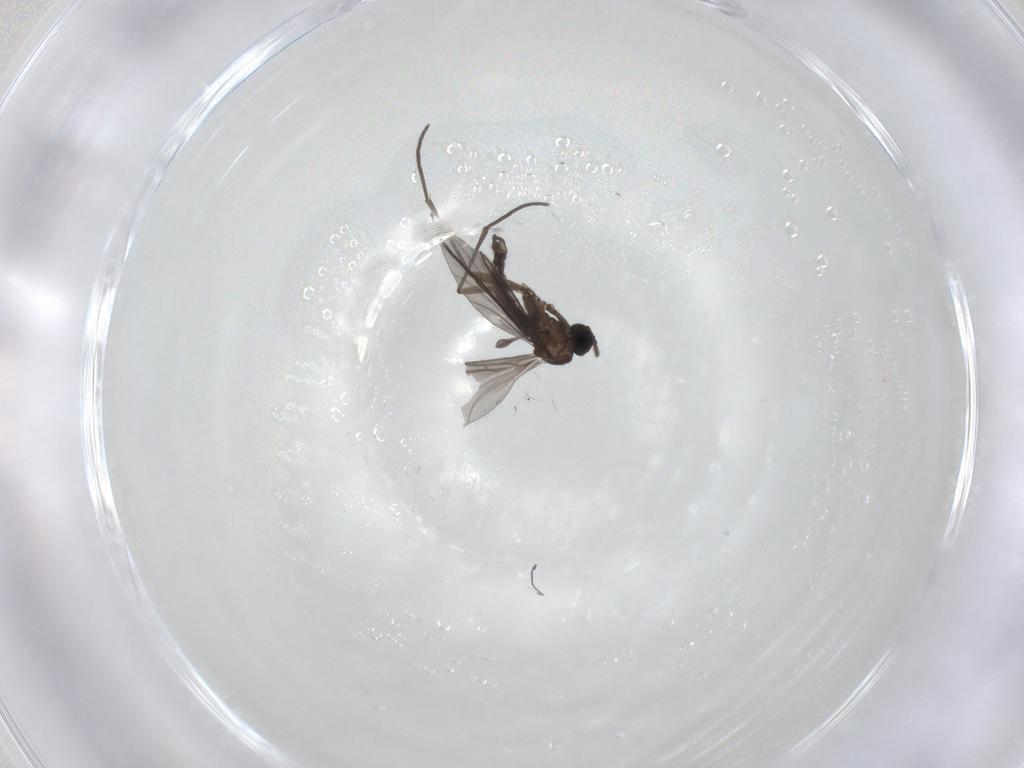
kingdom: Animalia
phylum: Arthropoda
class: Insecta
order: Diptera
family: Sciaridae
